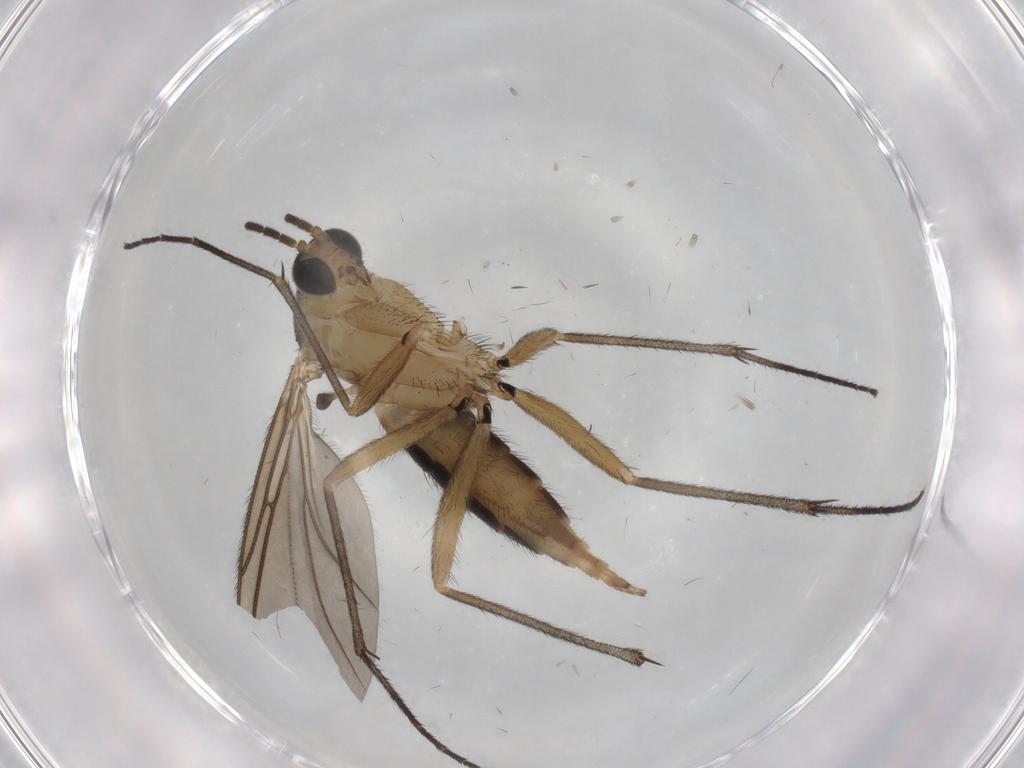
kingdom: Animalia
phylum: Arthropoda
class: Insecta
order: Diptera
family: Sciaridae
